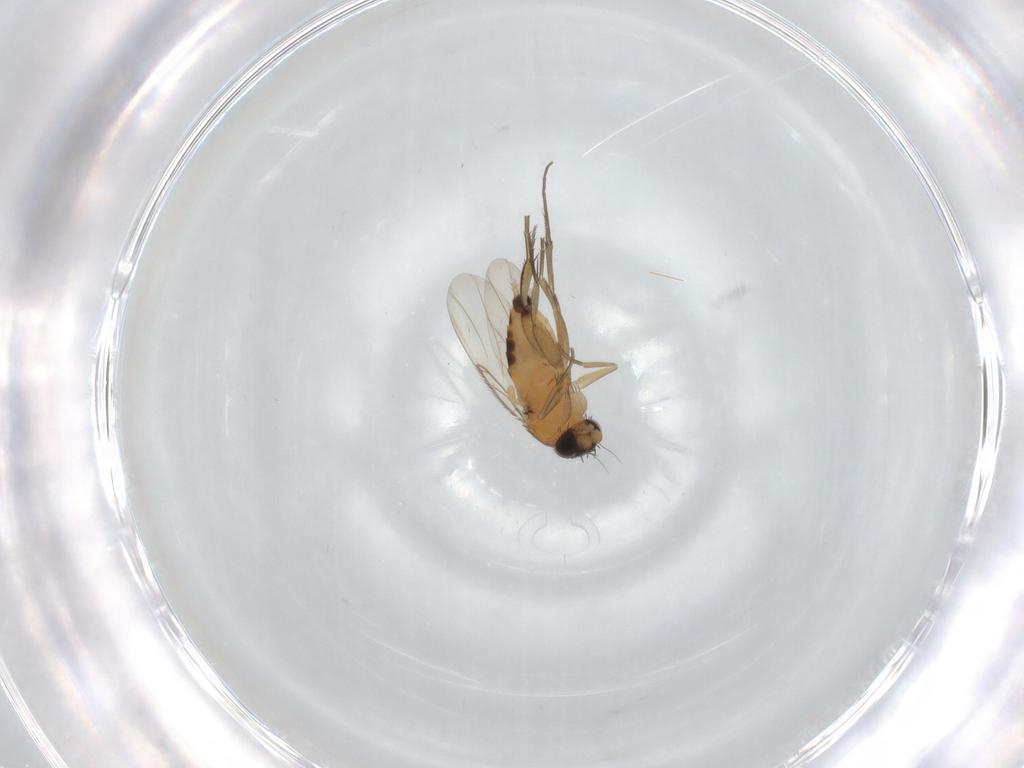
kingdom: Animalia
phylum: Arthropoda
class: Insecta
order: Diptera
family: Phoridae
